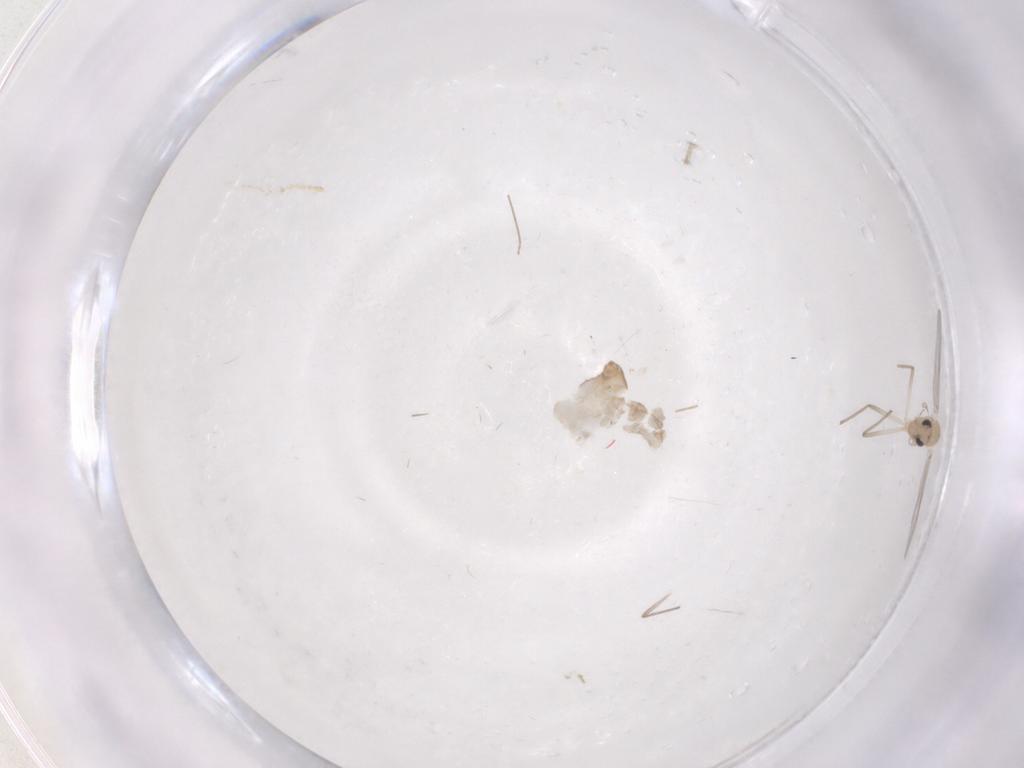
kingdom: Animalia
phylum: Arthropoda
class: Insecta
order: Diptera
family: Chironomidae
